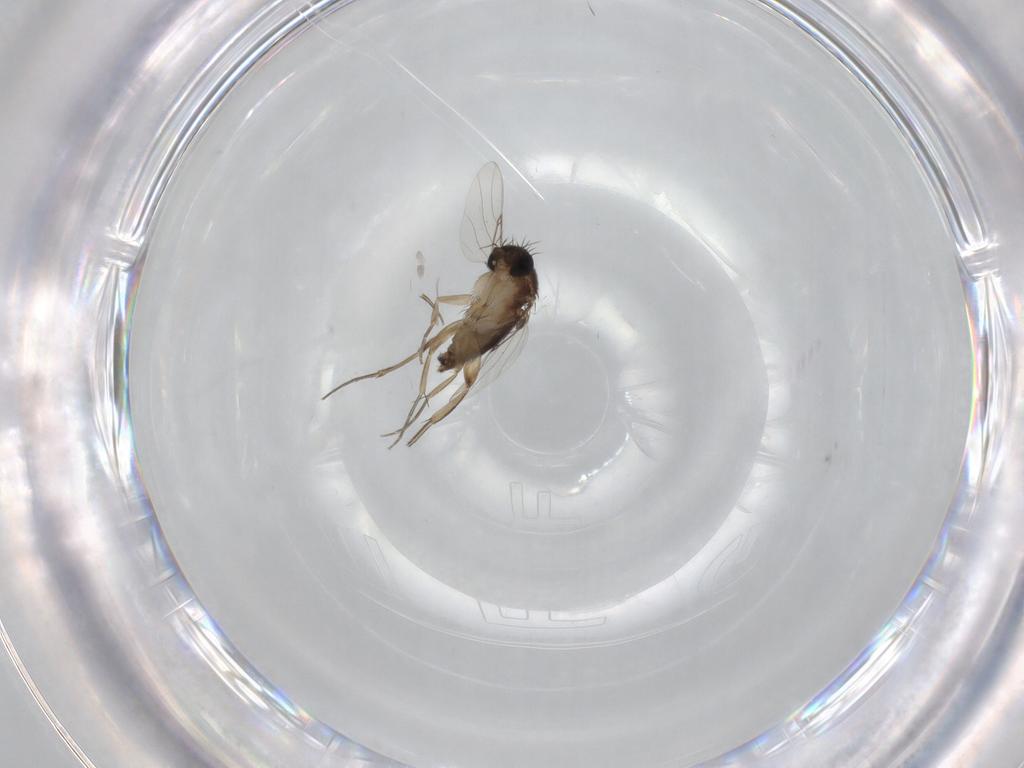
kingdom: Animalia
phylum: Arthropoda
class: Insecta
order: Diptera
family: Phoridae
